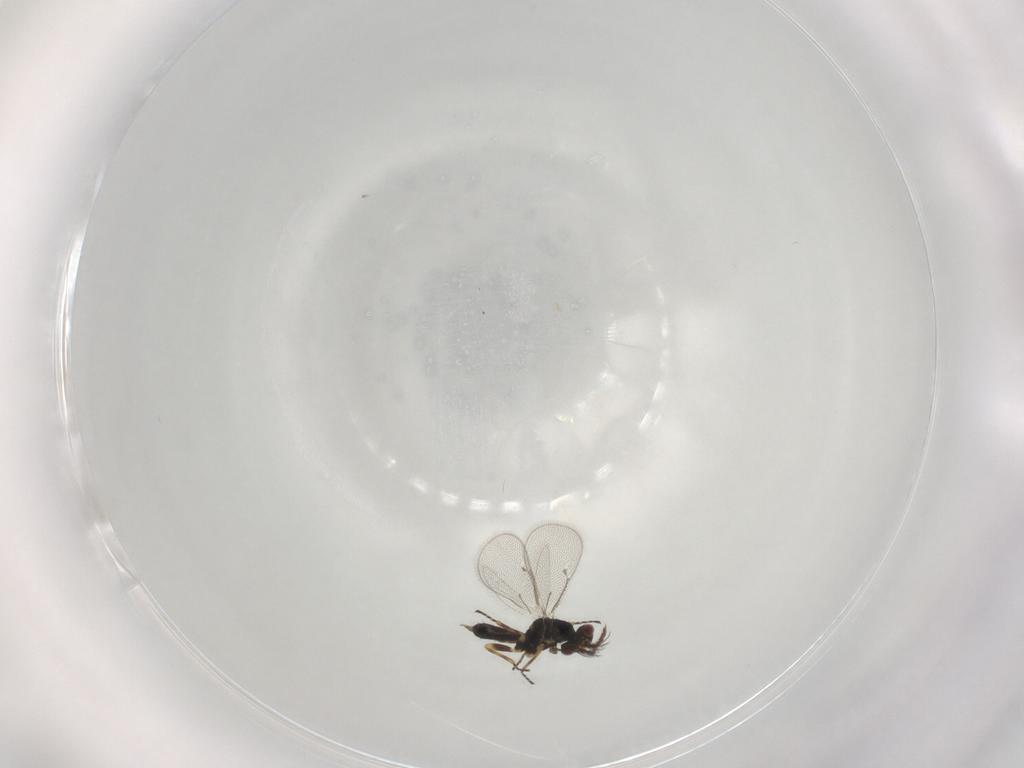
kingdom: Animalia
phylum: Arthropoda
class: Insecta
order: Hymenoptera
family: Eulophidae
